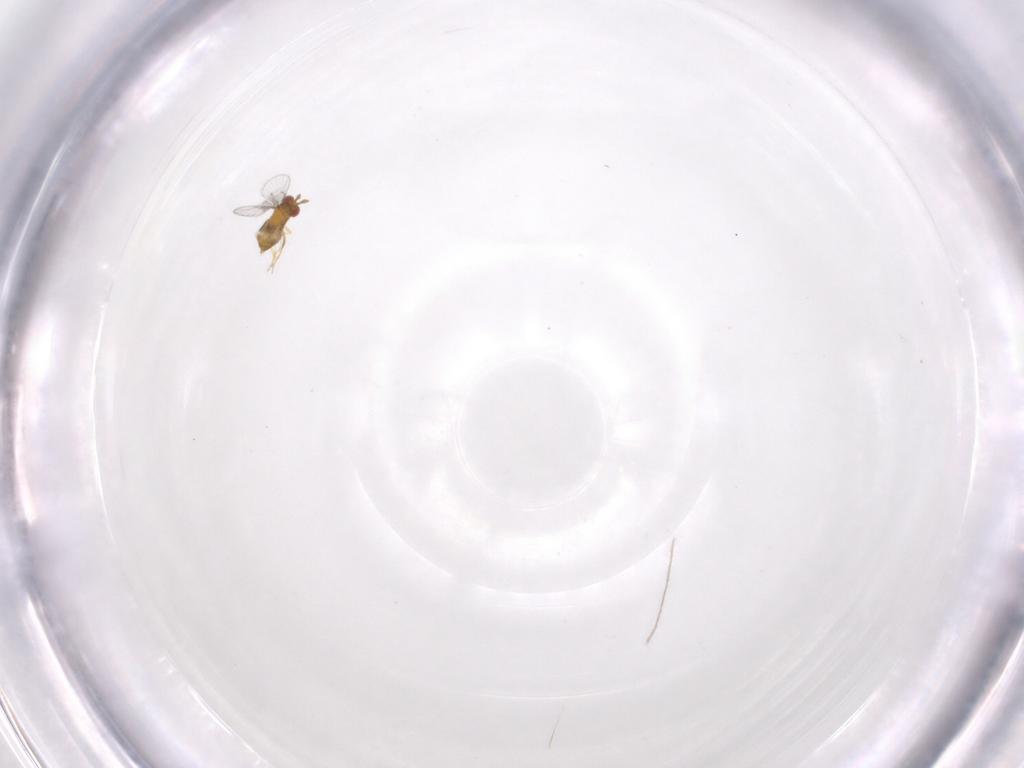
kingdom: Animalia
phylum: Arthropoda
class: Insecta
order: Hymenoptera
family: Trichogrammatidae
